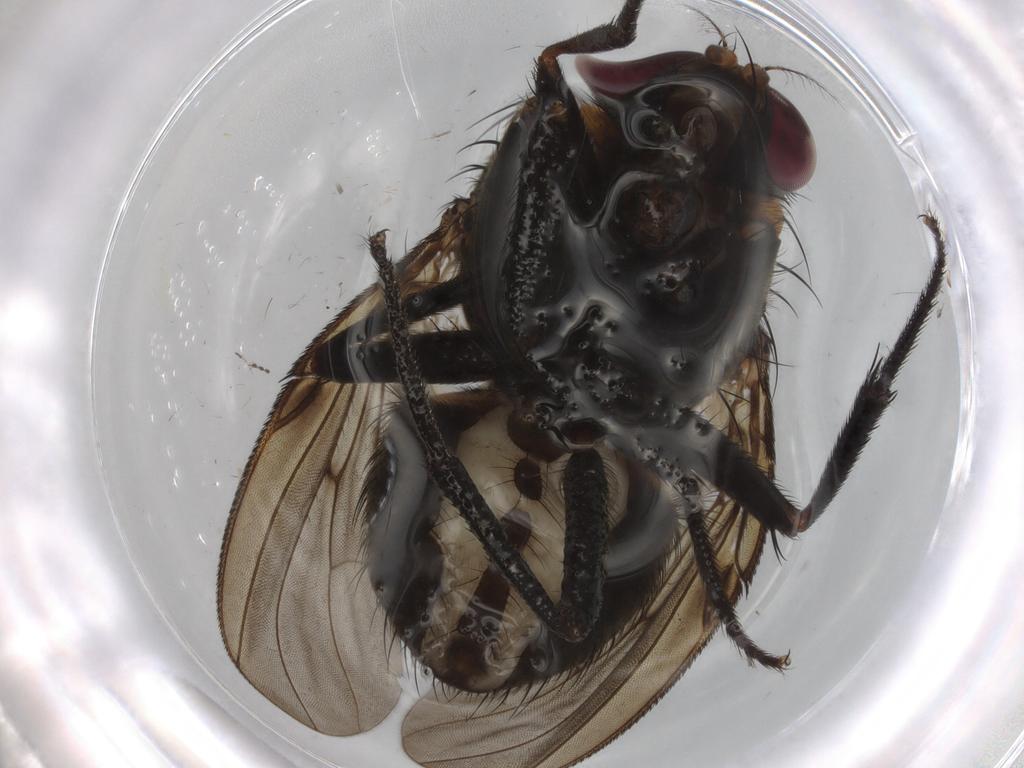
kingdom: Animalia
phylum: Arthropoda
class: Insecta
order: Diptera
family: Muscidae
